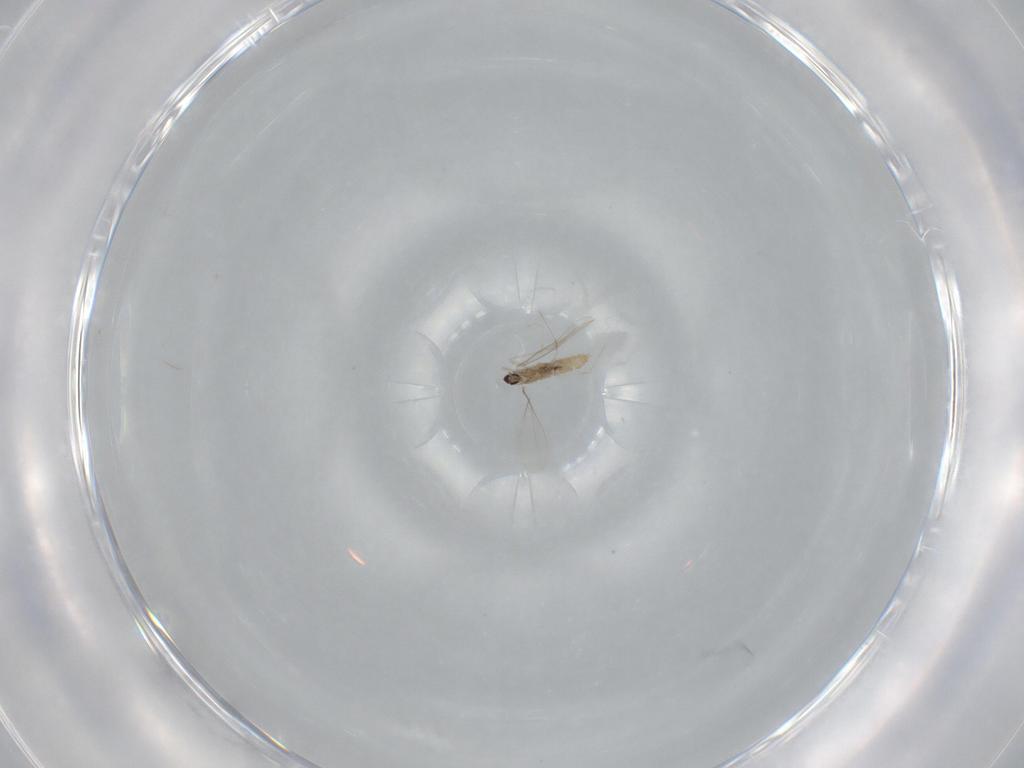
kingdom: Animalia
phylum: Arthropoda
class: Insecta
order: Diptera
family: Cecidomyiidae
